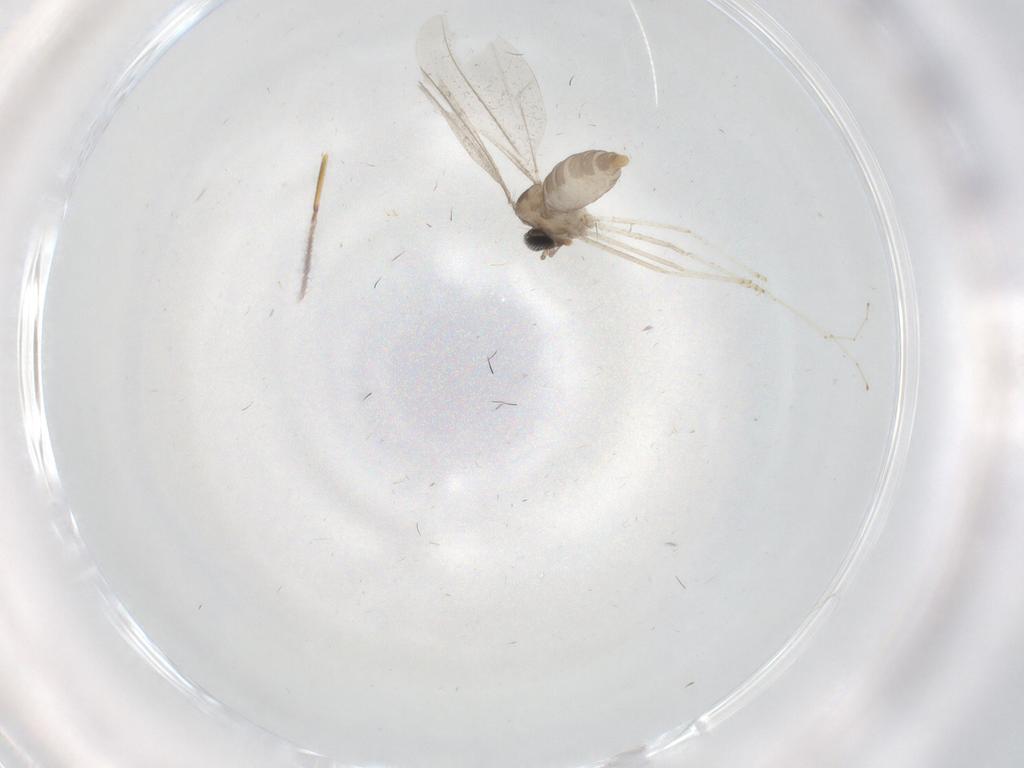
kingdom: Animalia
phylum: Arthropoda
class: Insecta
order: Diptera
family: Cecidomyiidae
